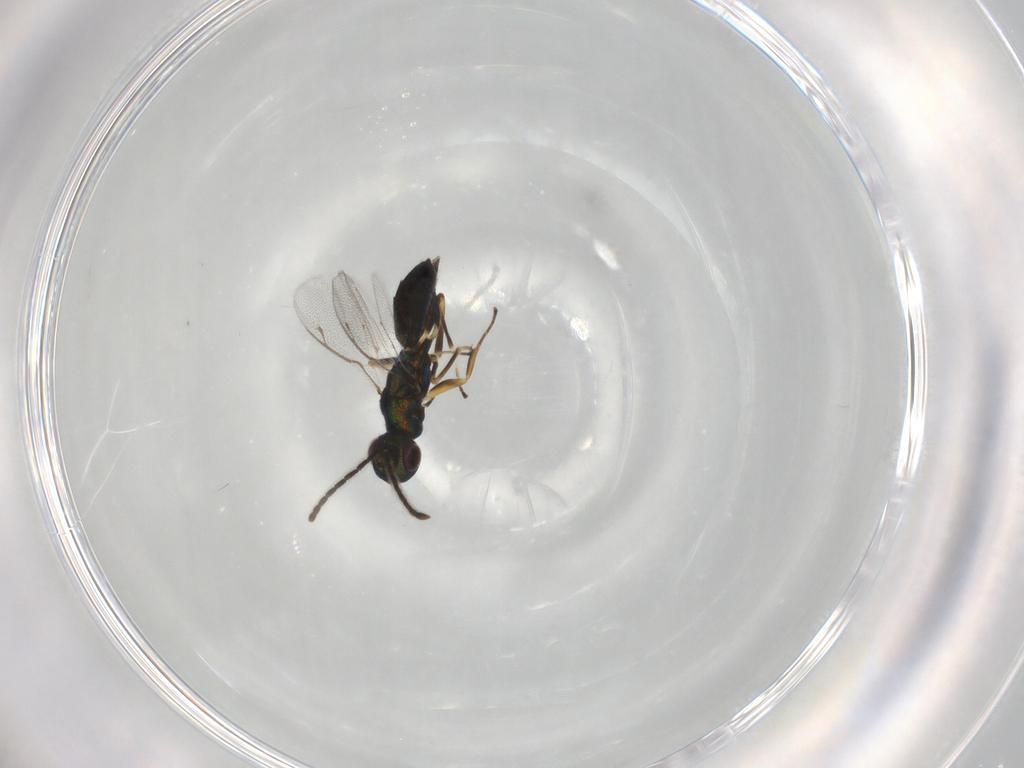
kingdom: Animalia
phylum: Arthropoda
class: Insecta
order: Hymenoptera
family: Eupelmidae
